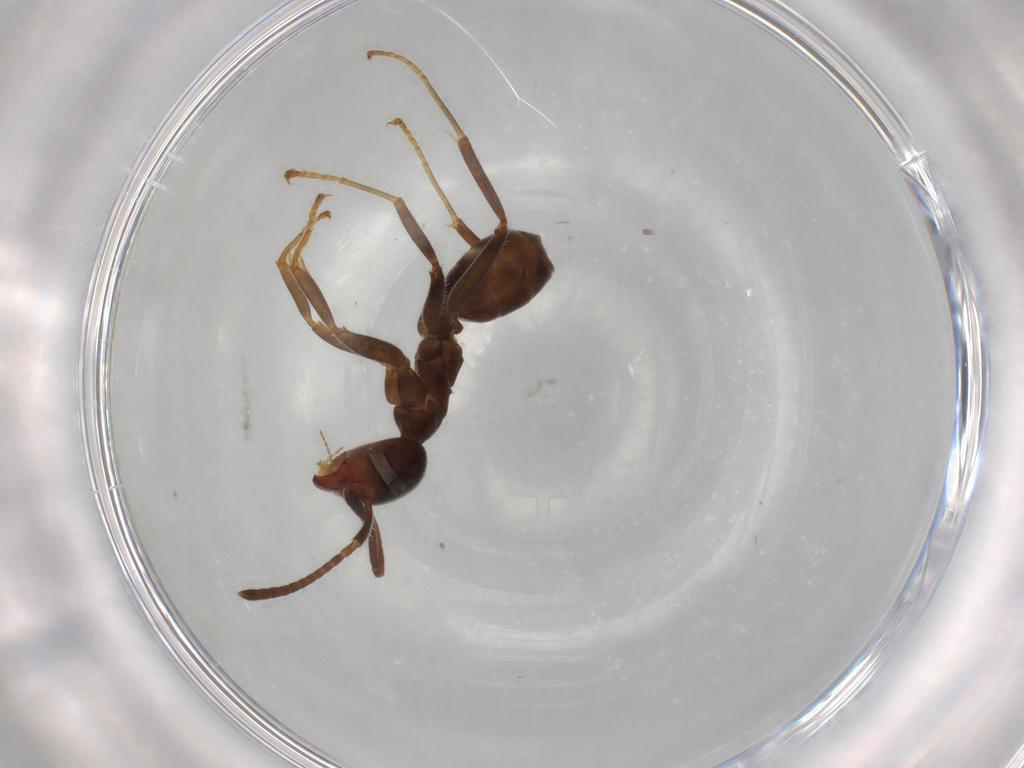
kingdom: Animalia
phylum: Arthropoda
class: Insecta
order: Hymenoptera
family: Formicidae
